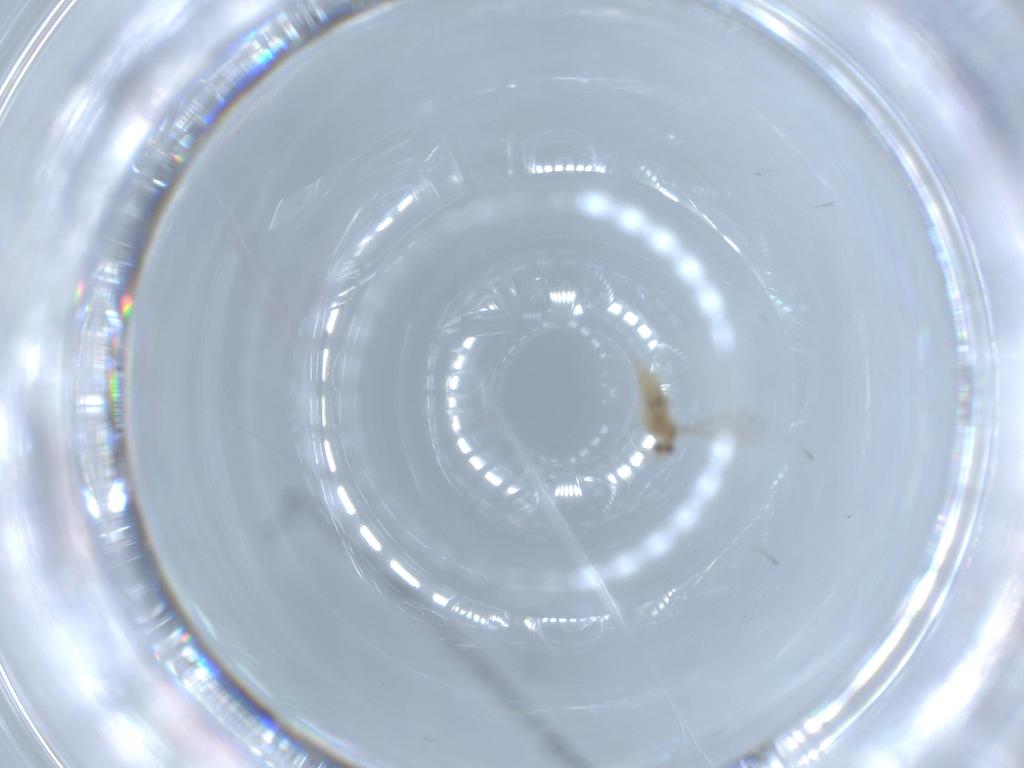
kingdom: Animalia
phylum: Arthropoda
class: Insecta
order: Diptera
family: Cecidomyiidae
